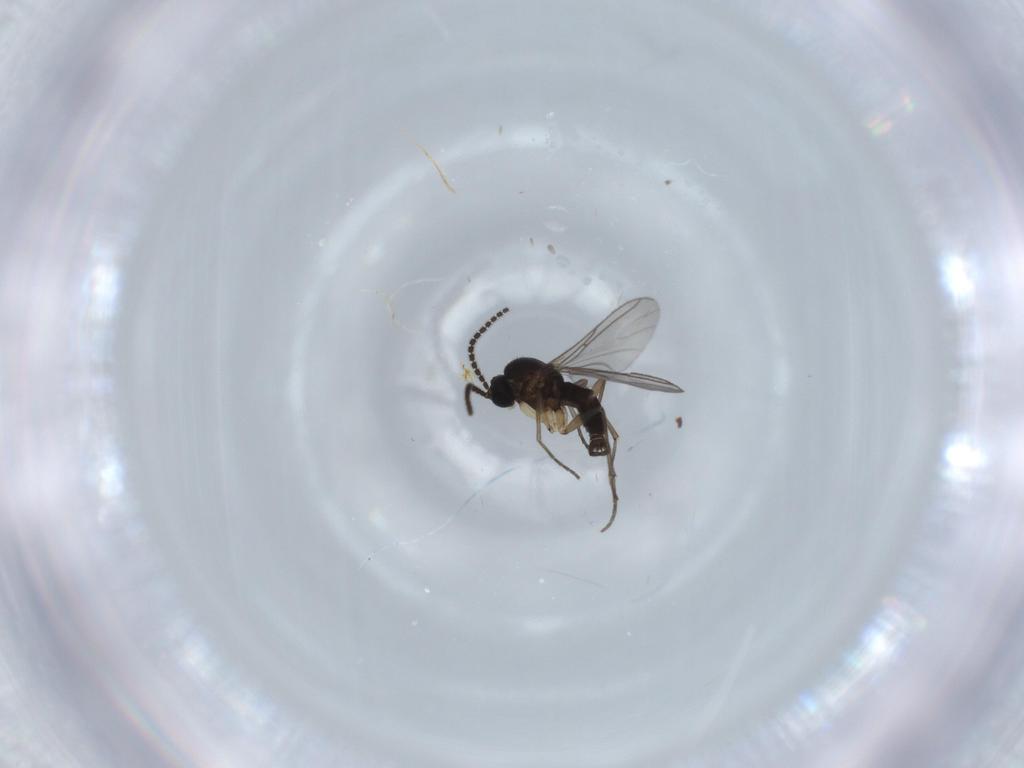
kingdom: Animalia
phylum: Arthropoda
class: Insecta
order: Diptera
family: Sciaridae
